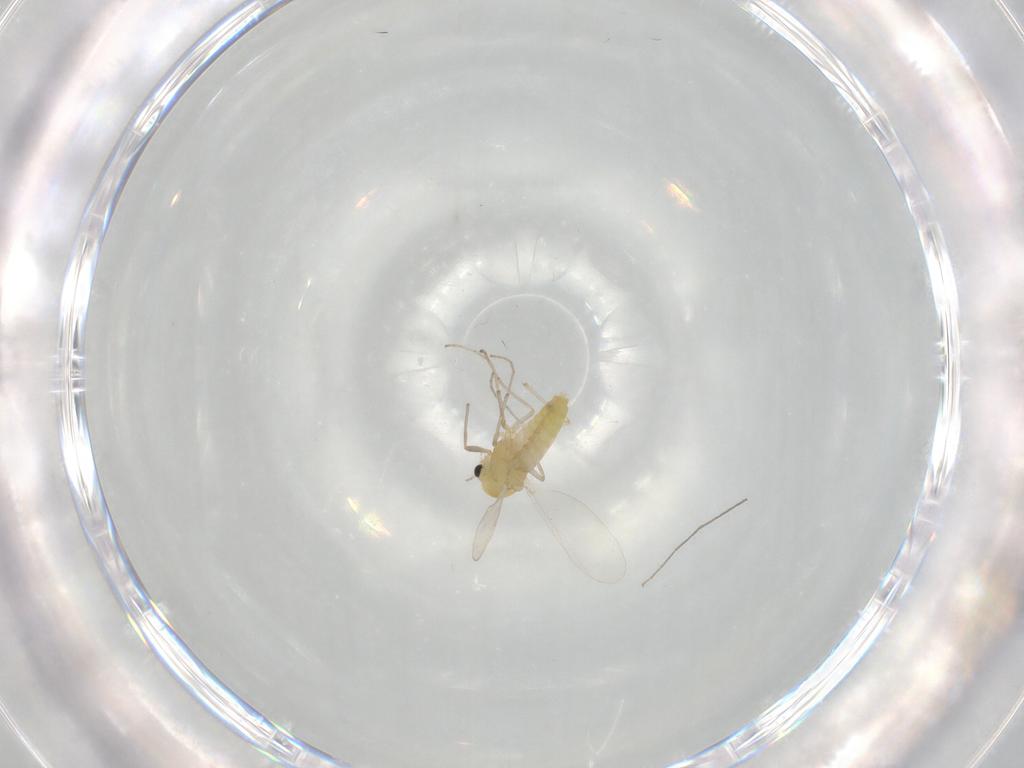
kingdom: Animalia
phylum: Arthropoda
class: Insecta
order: Diptera
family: Chironomidae
